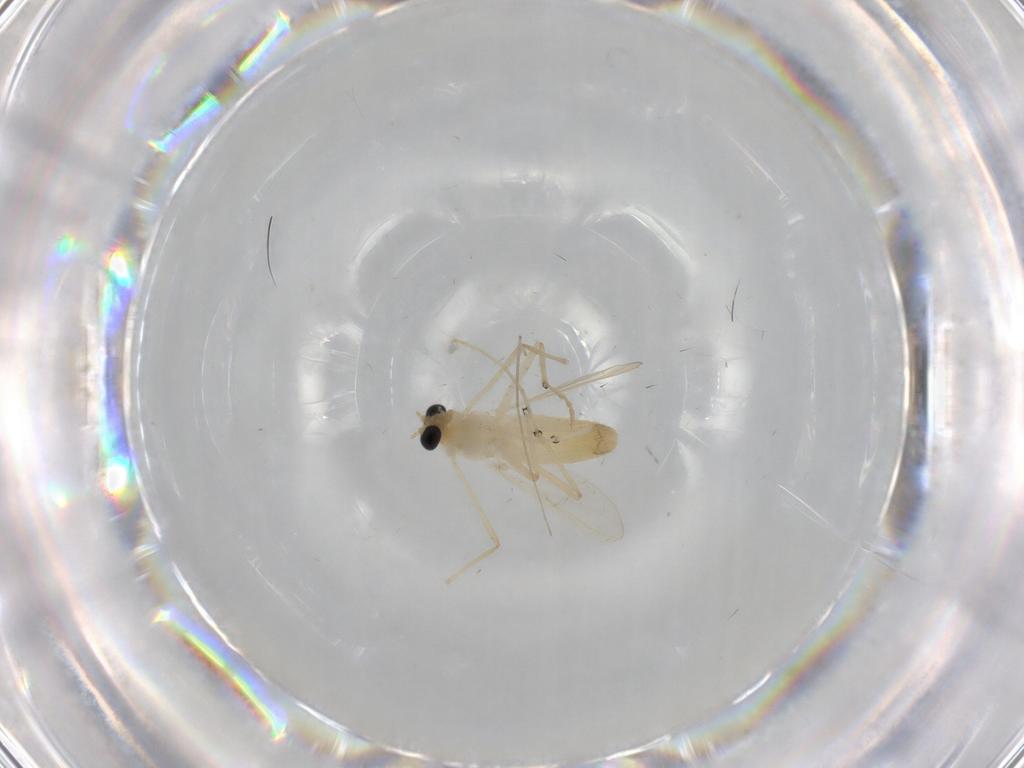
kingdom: Animalia
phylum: Arthropoda
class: Insecta
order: Diptera
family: Chironomidae
